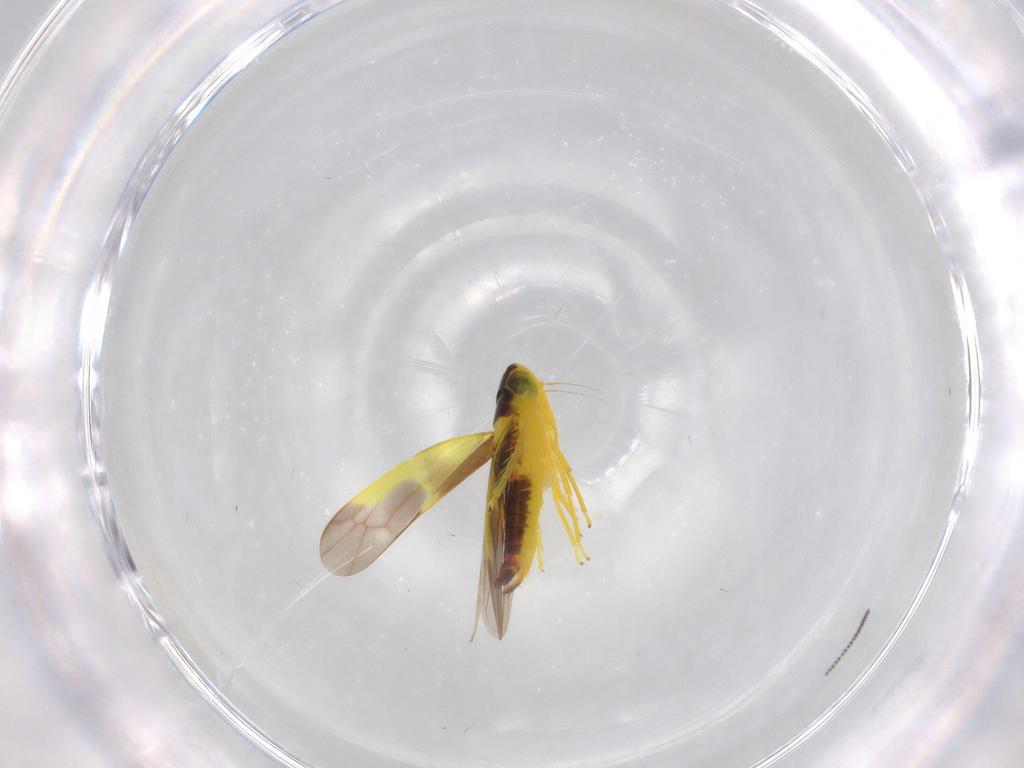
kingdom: Animalia
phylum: Arthropoda
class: Insecta
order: Hemiptera
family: Cicadellidae
